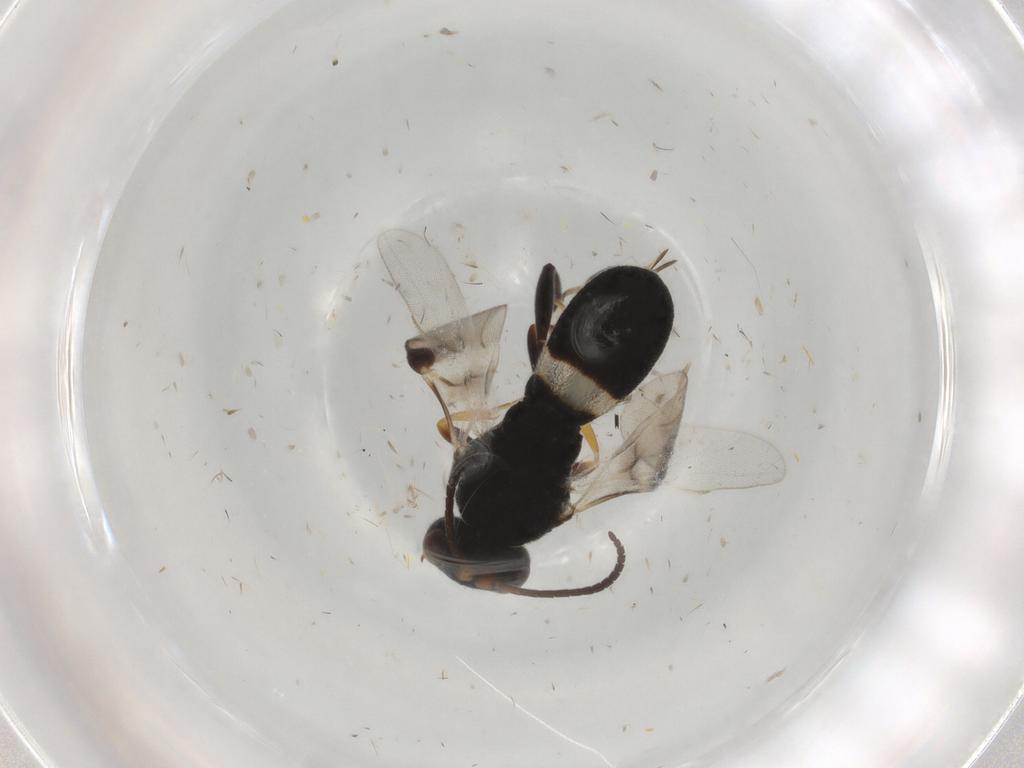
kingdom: Animalia
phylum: Arthropoda
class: Insecta
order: Hymenoptera
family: Braconidae
